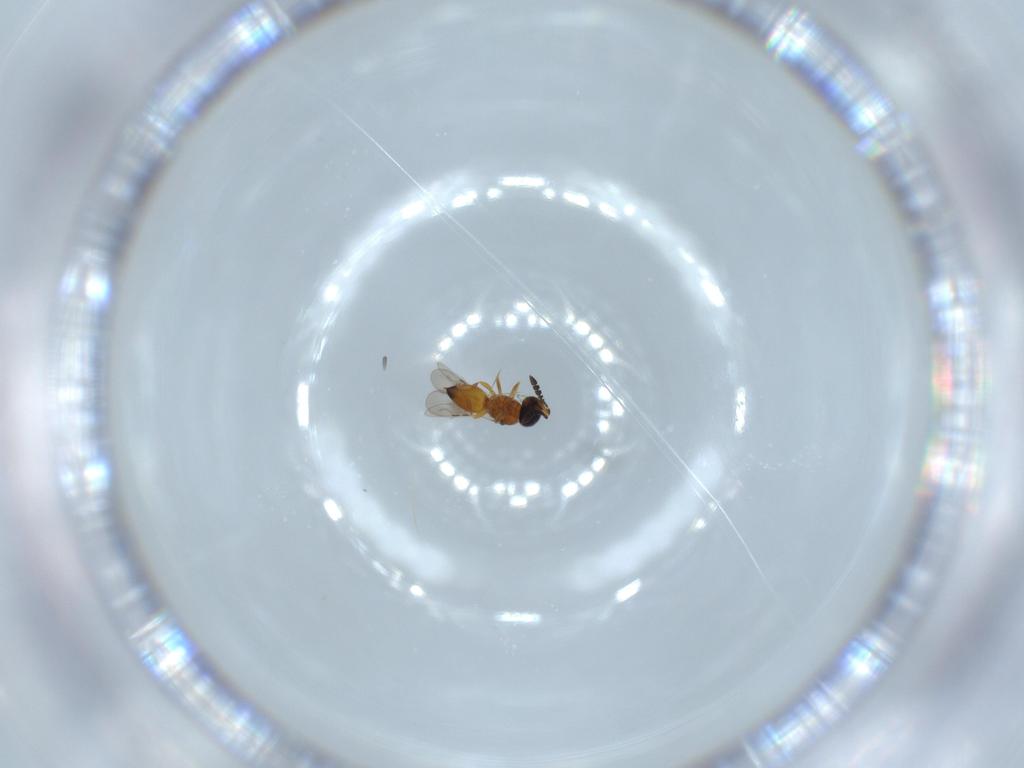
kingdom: Animalia
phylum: Arthropoda
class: Insecta
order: Hymenoptera
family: Ceraphronidae
